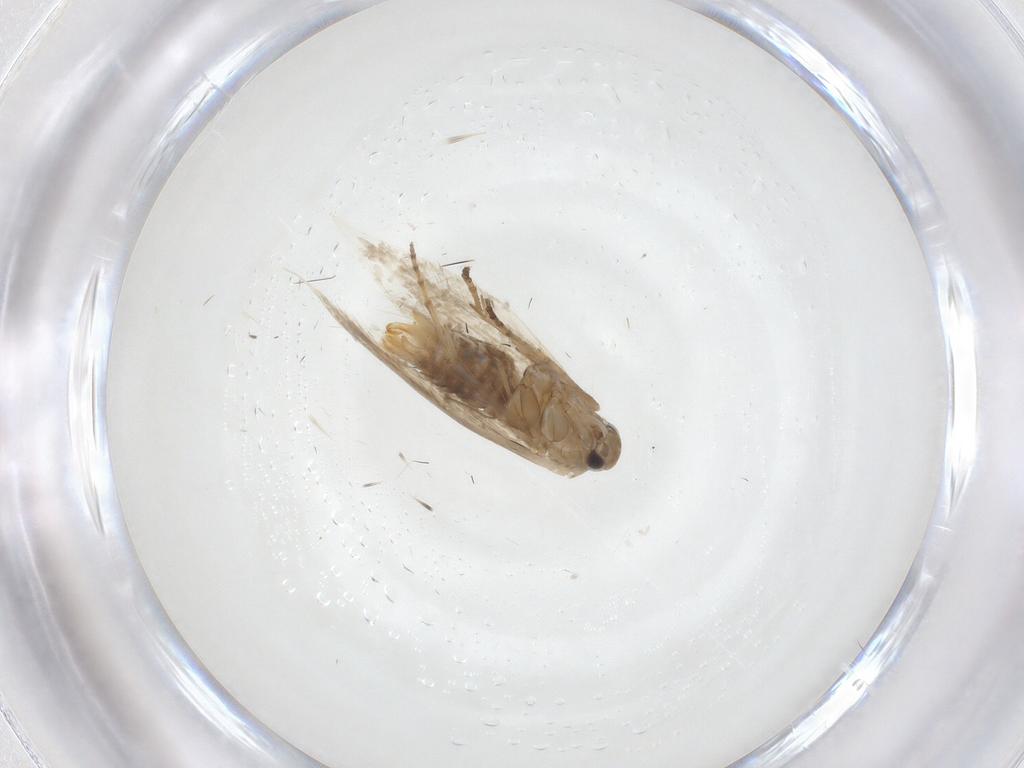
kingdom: Animalia
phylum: Arthropoda
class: Insecta
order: Lepidoptera
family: Bucculatricidae
